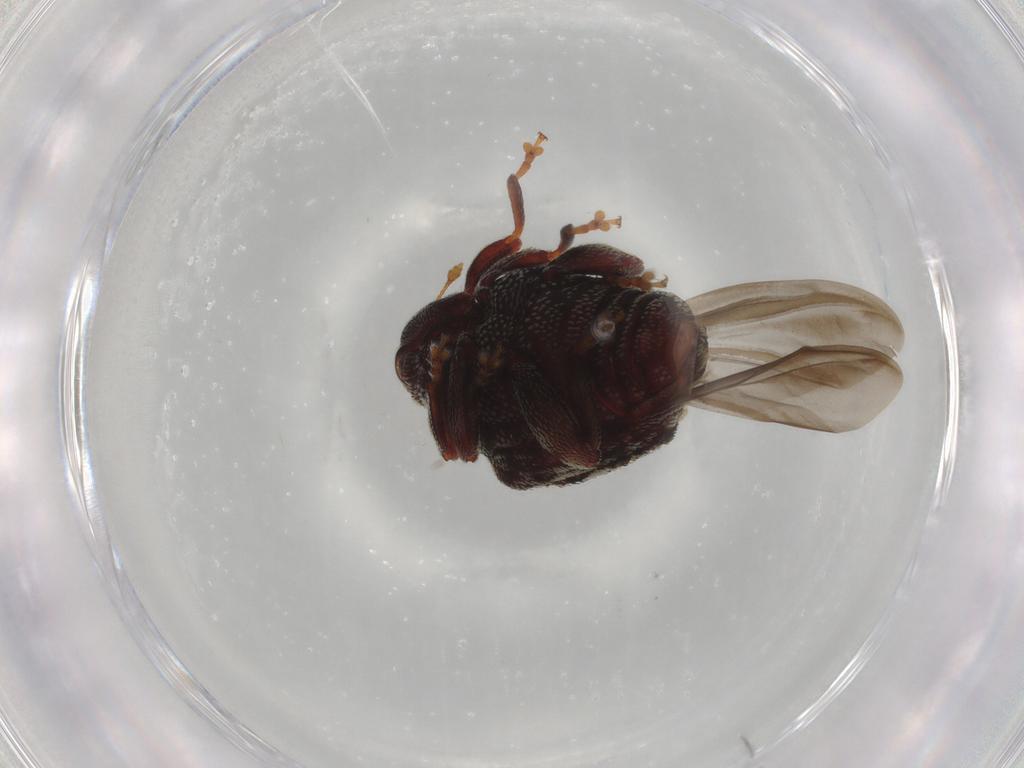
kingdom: Animalia
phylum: Arthropoda
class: Insecta
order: Coleoptera
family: Curculionidae
